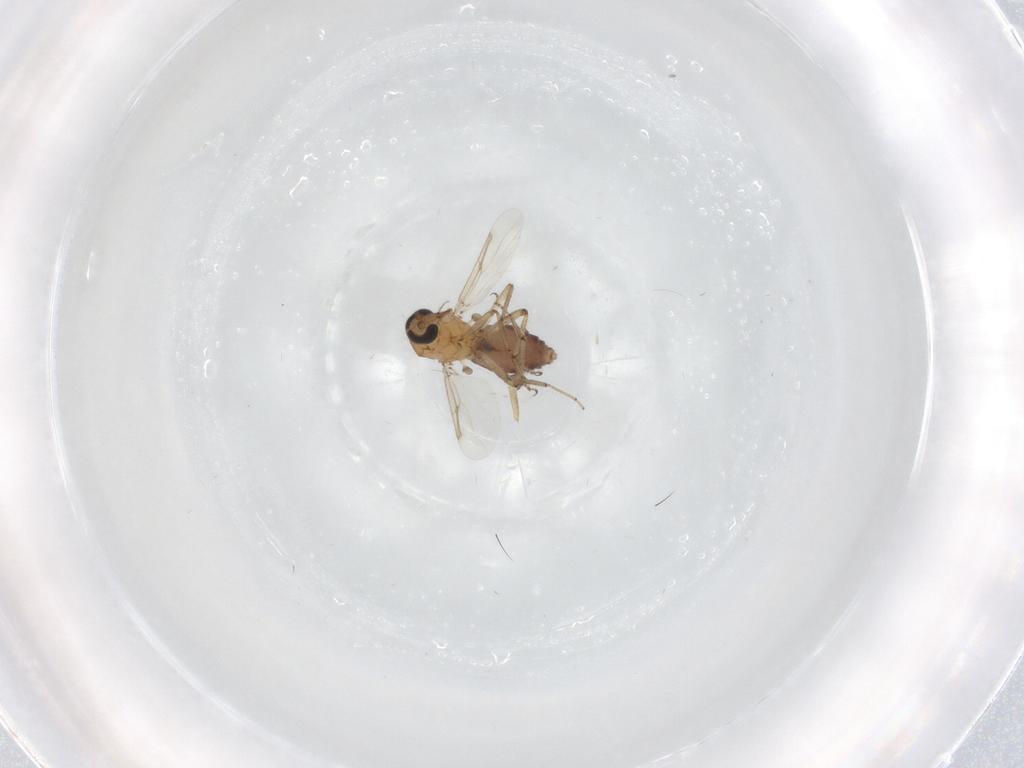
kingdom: Animalia
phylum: Arthropoda
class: Insecta
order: Diptera
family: Ceratopogonidae
